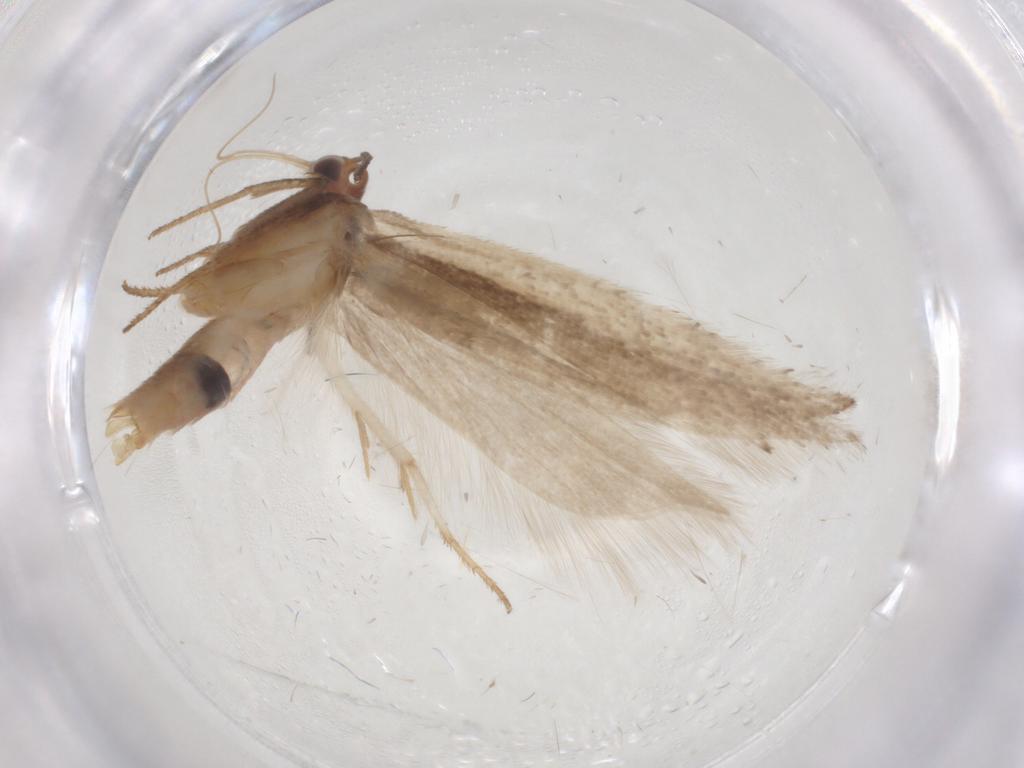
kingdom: Animalia
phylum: Arthropoda
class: Insecta
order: Lepidoptera
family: Gelechiidae
